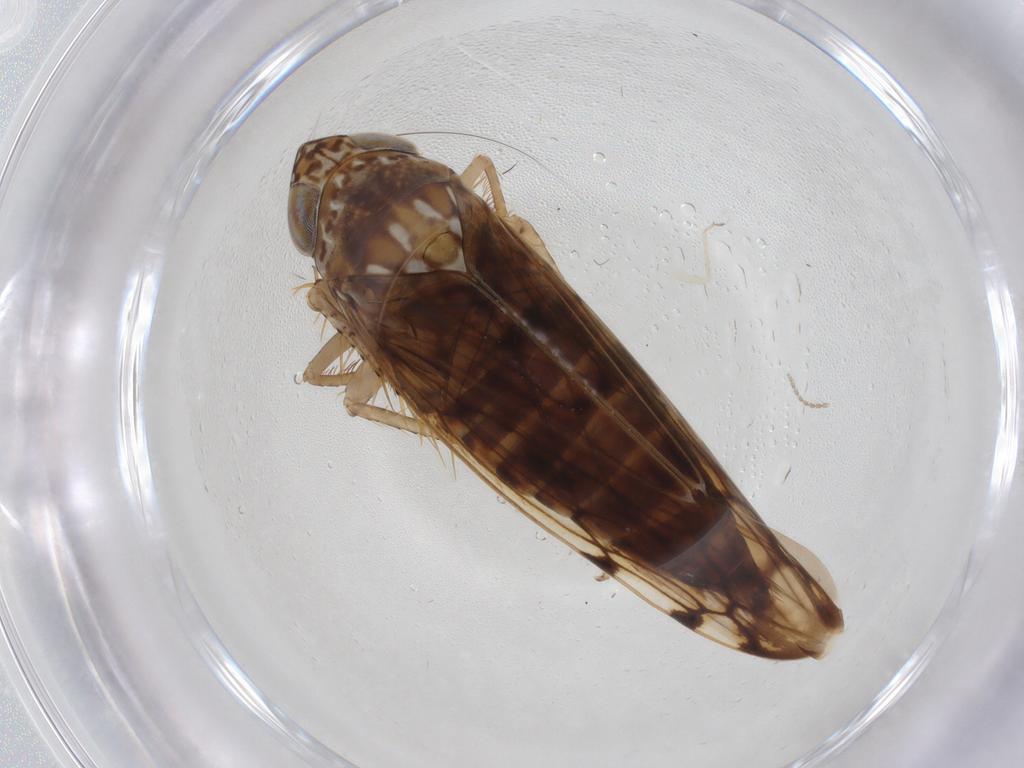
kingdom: Animalia
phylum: Arthropoda
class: Insecta
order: Hemiptera
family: Cicadellidae
